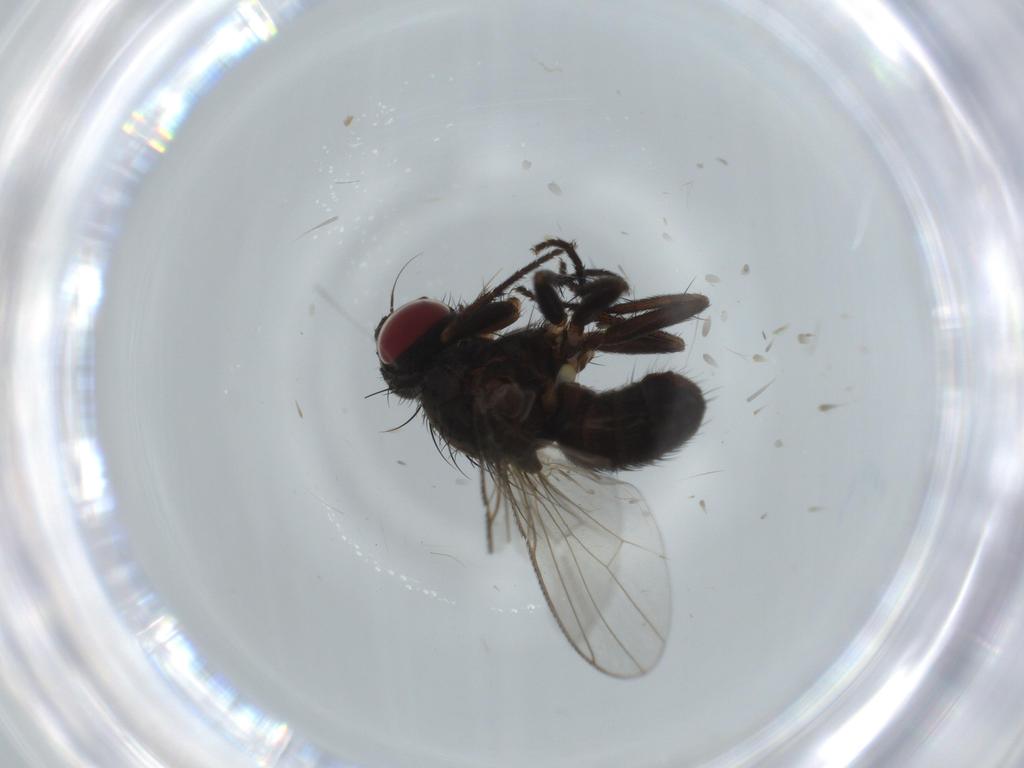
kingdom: Animalia
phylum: Arthropoda
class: Insecta
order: Diptera
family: Muscidae
